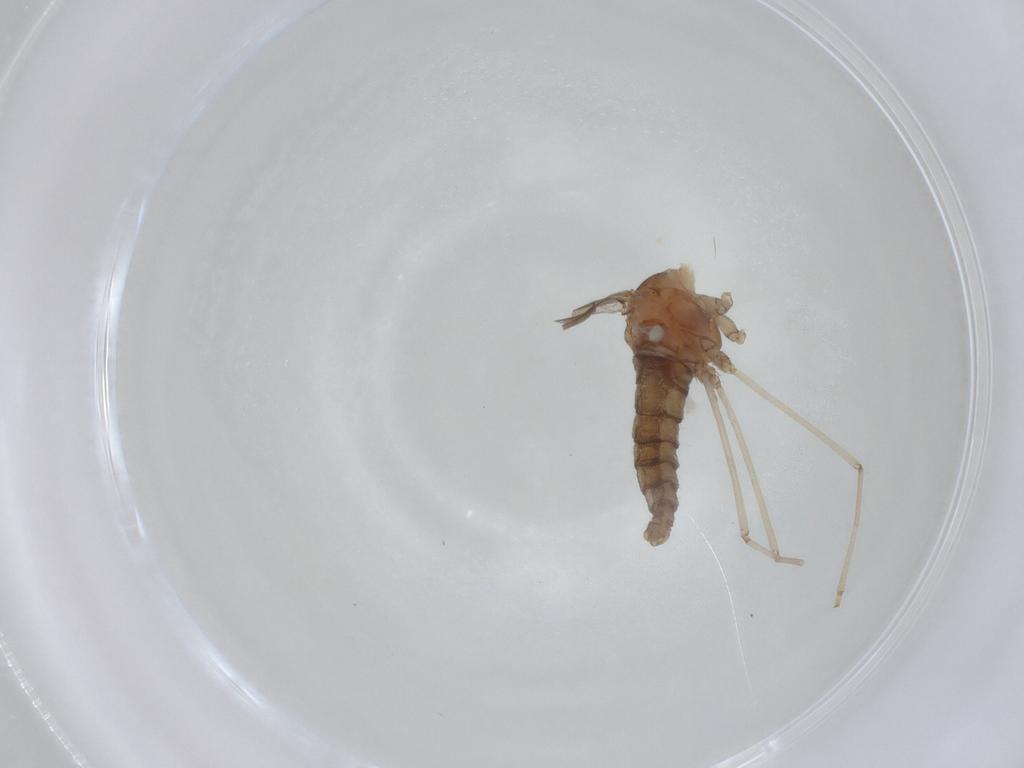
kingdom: Animalia
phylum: Arthropoda
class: Insecta
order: Diptera
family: Cecidomyiidae
